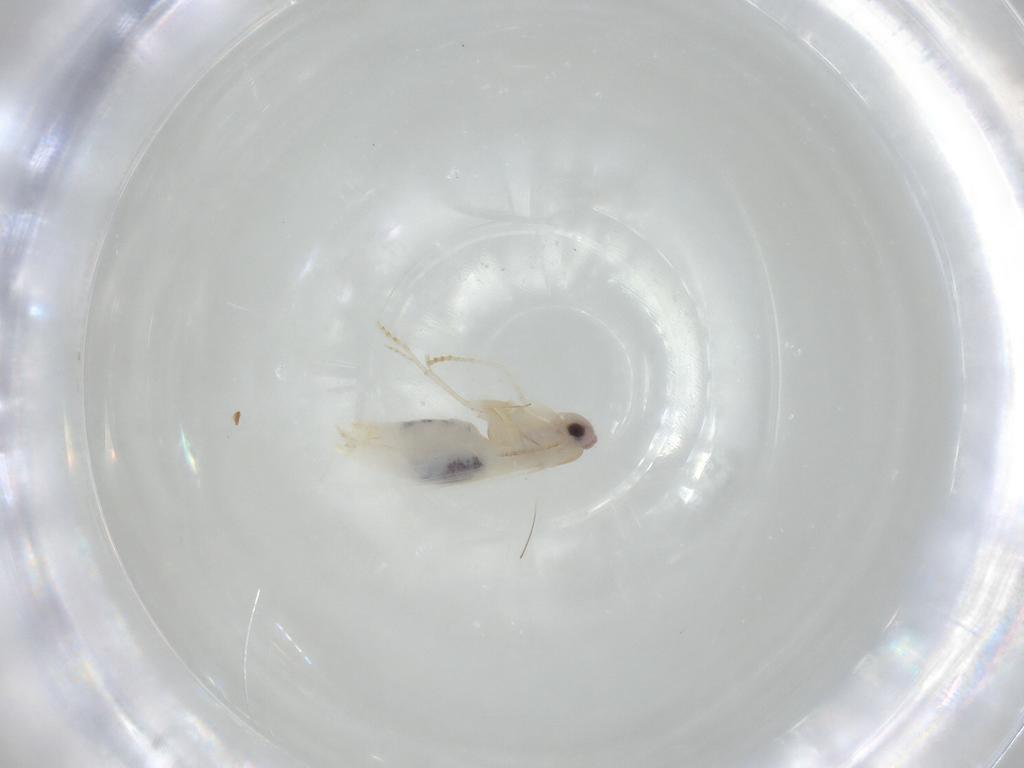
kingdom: Animalia
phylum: Arthropoda
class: Insecta
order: Lepidoptera
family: Bucculatricidae
